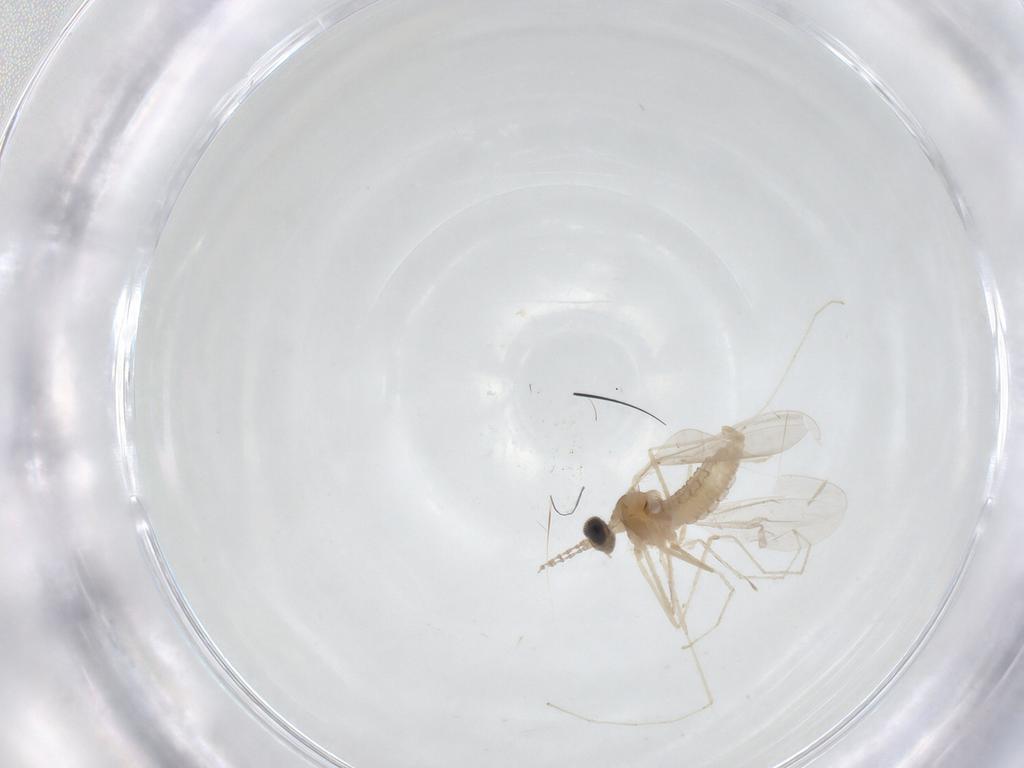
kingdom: Animalia
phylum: Arthropoda
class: Insecta
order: Diptera
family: Cecidomyiidae
